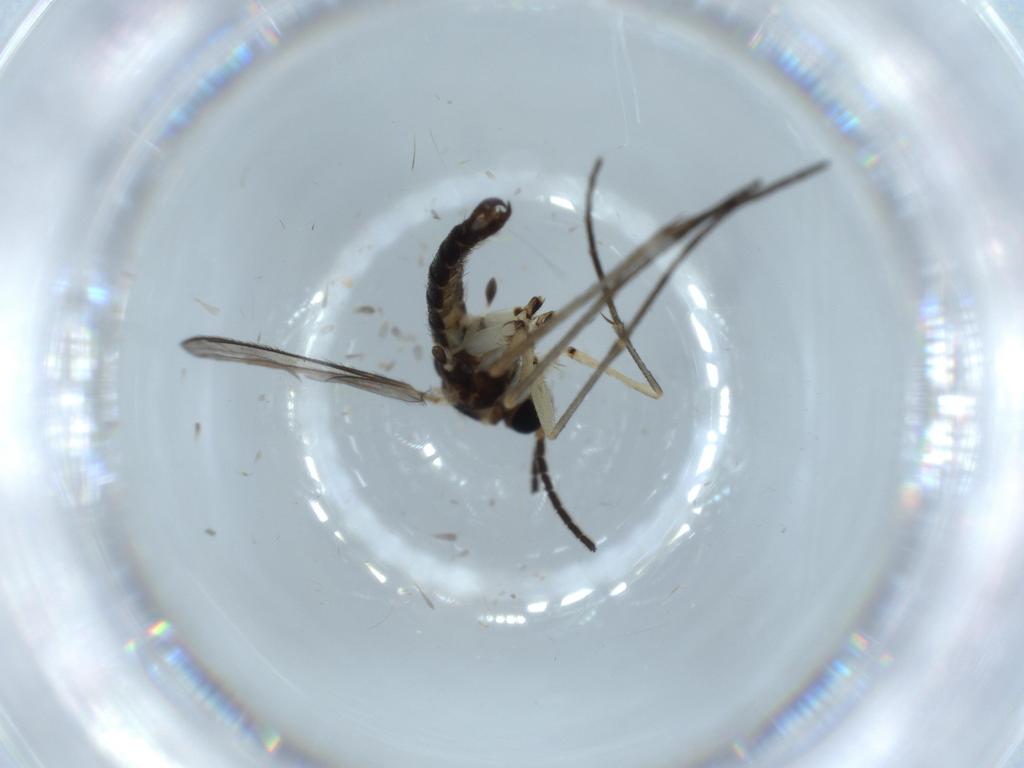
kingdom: Animalia
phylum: Arthropoda
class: Insecta
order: Diptera
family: Sciaridae
